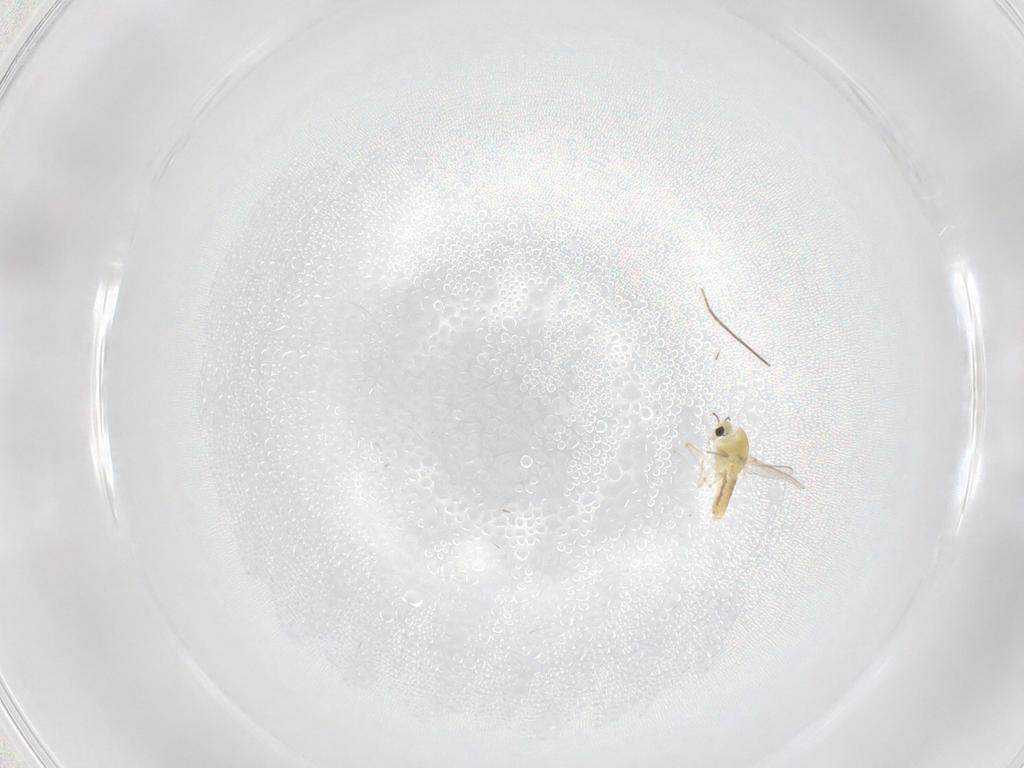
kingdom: Animalia
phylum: Arthropoda
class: Insecta
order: Diptera
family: Chironomidae
